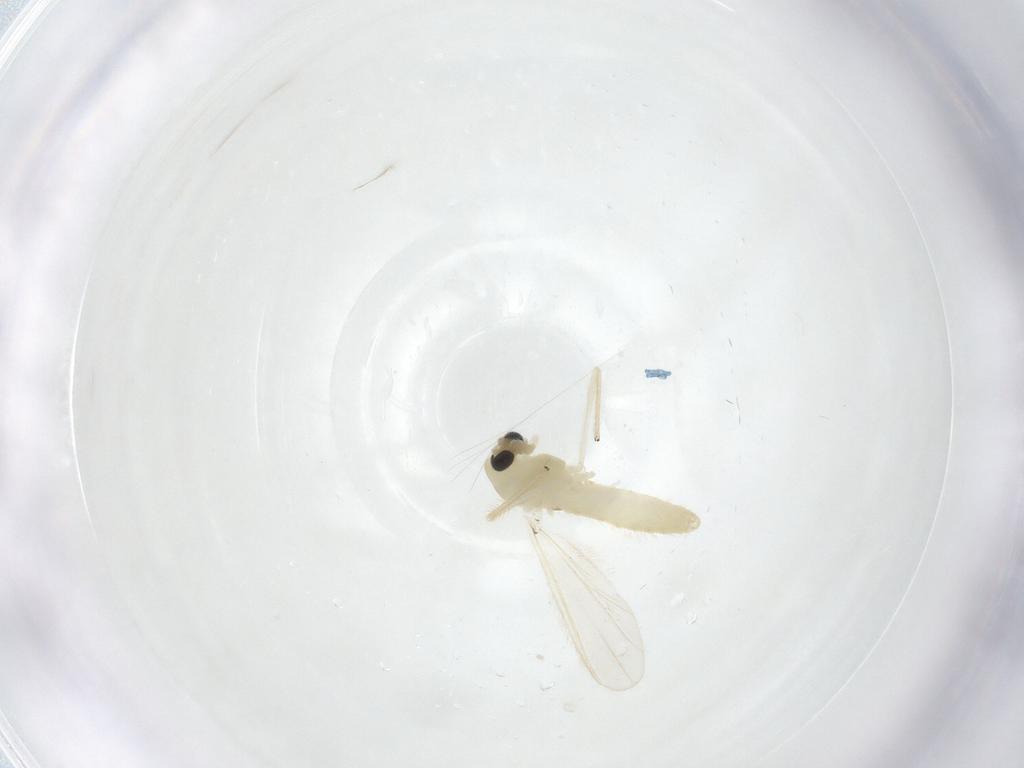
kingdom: Animalia
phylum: Arthropoda
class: Insecta
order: Diptera
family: Chironomidae
